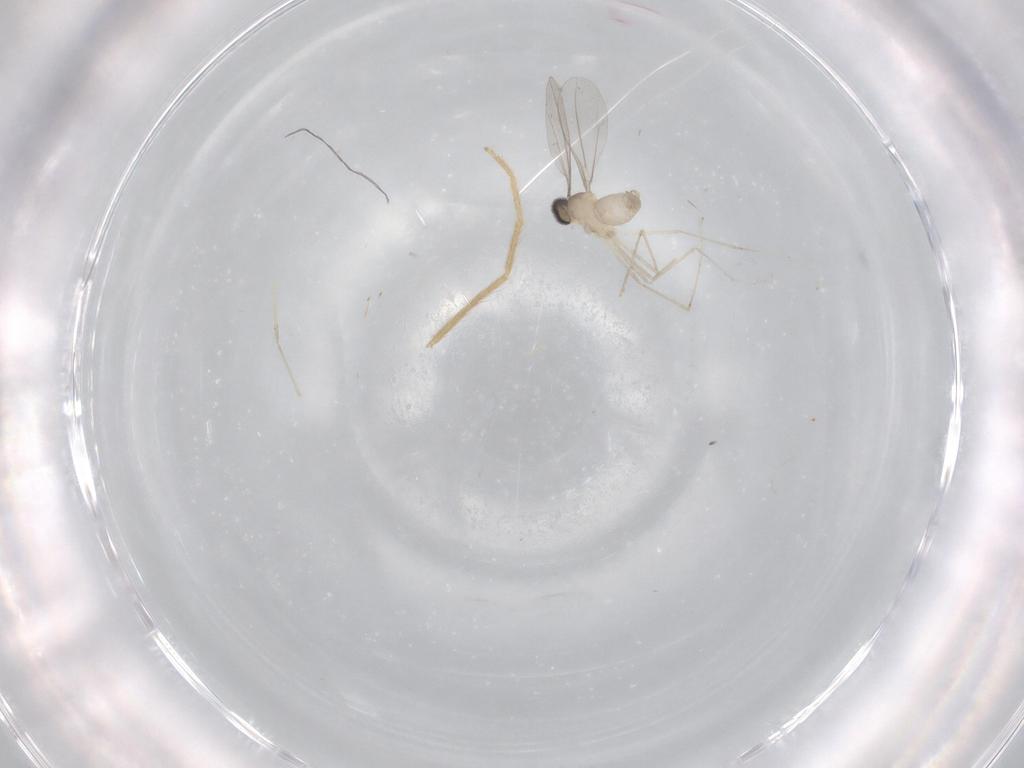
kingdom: Animalia
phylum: Arthropoda
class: Insecta
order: Diptera
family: Cecidomyiidae
